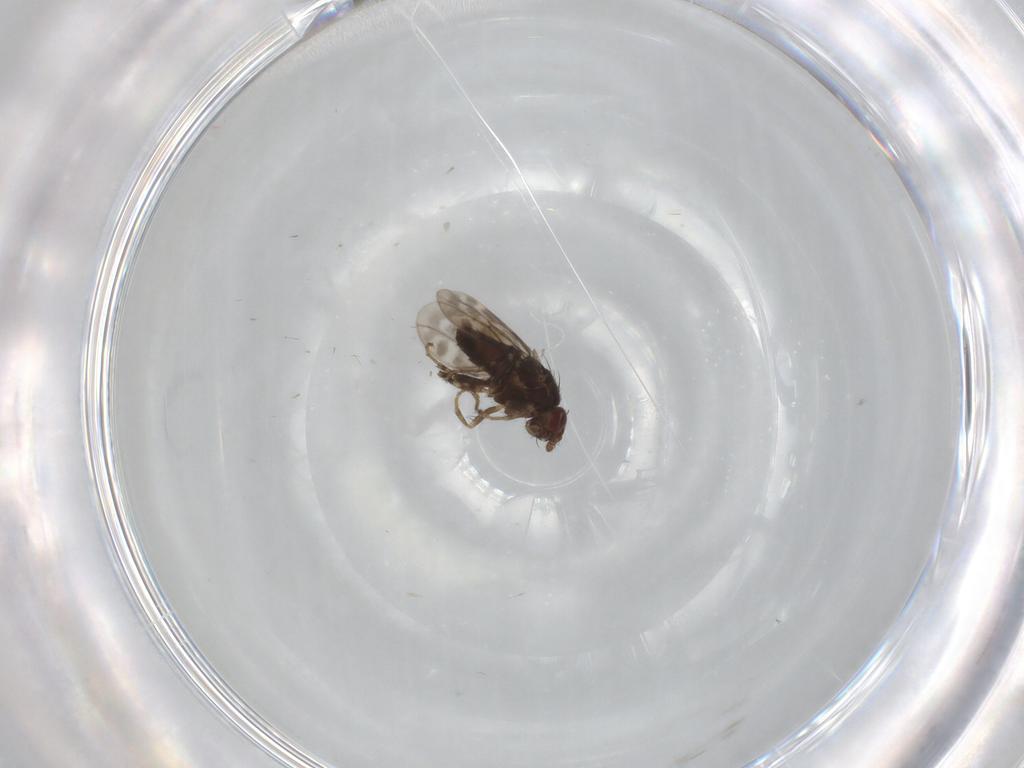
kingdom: Animalia
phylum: Arthropoda
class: Insecta
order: Diptera
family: Sphaeroceridae
